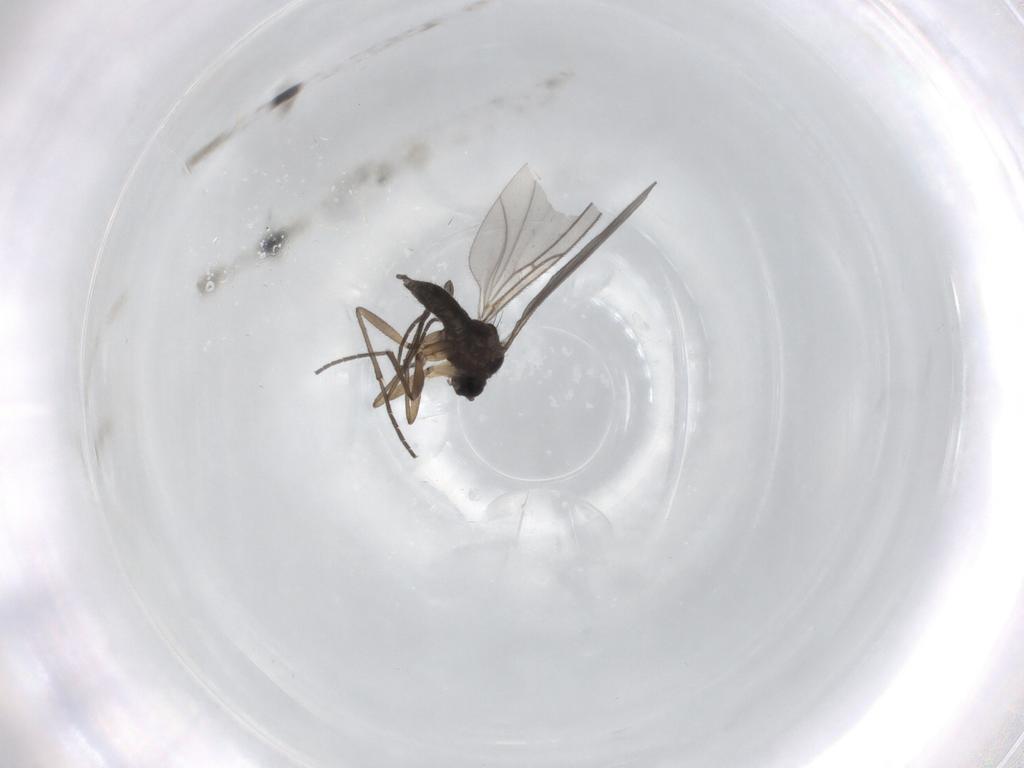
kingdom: Animalia
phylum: Arthropoda
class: Insecta
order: Diptera
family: Sciaridae
